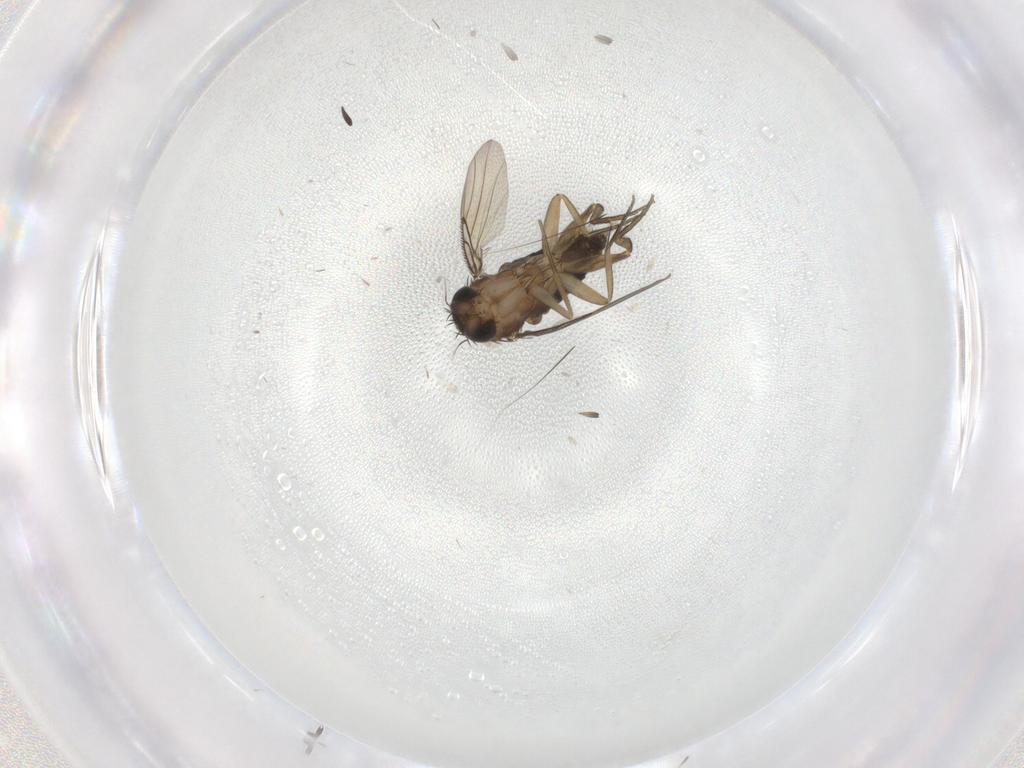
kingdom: Animalia
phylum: Arthropoda
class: Insecta
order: Diptera
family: Phoridae
